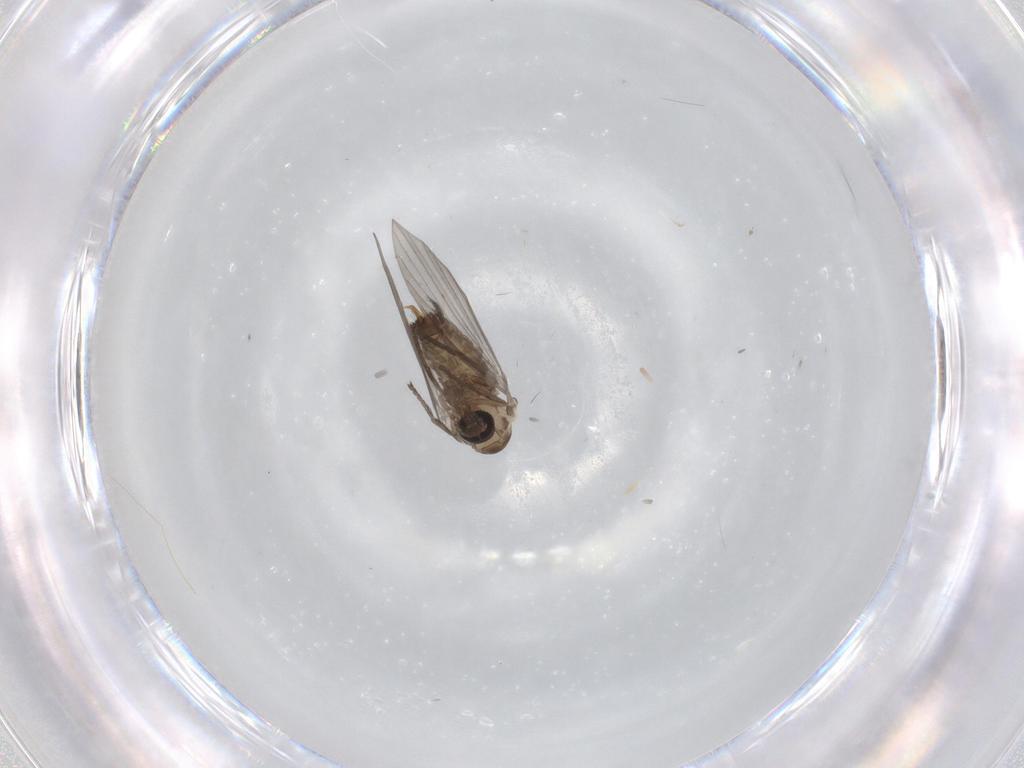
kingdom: Animalia
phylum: Arthropoda
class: Insecta
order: Diptera
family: Psychodidae
